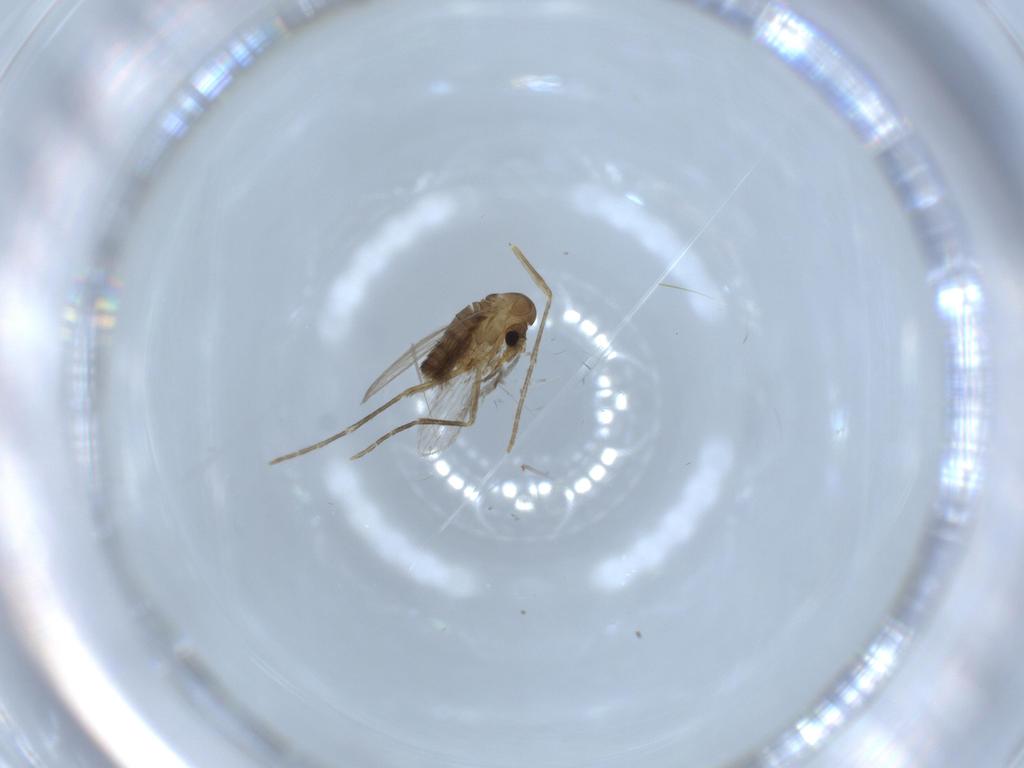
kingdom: Animalia
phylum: Arthropoda
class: Insecta
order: Diptera
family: Psychodidae
